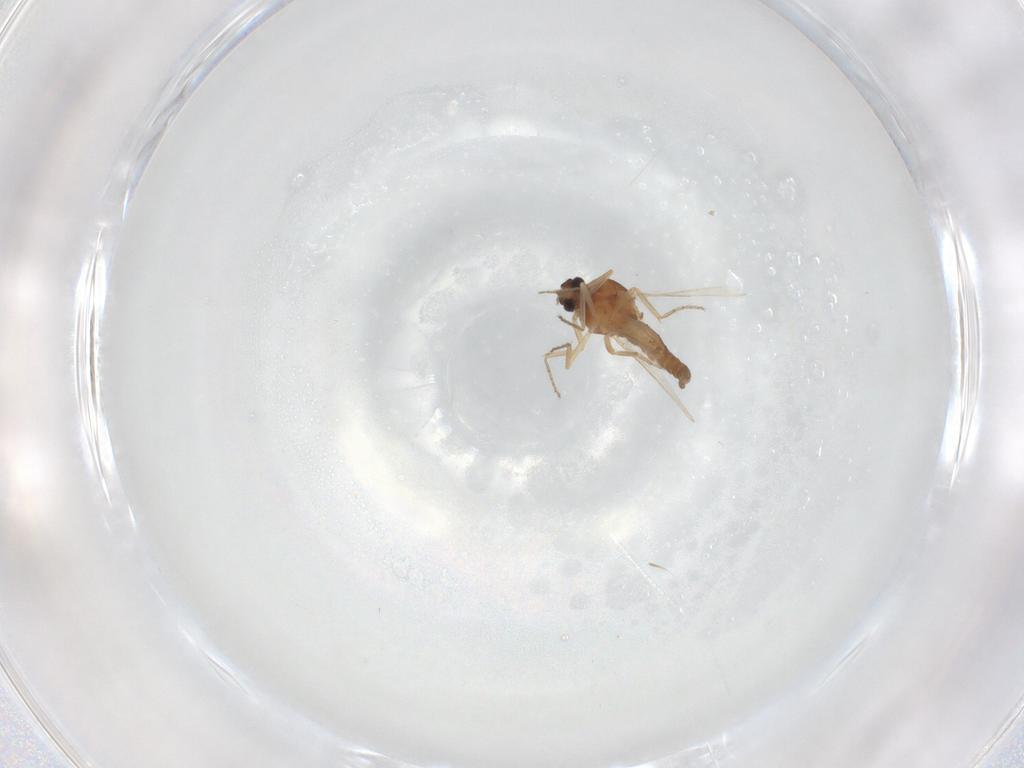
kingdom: Animalia
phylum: Arthropoda
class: Insecta
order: Diptera
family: Ceratopogonidae
